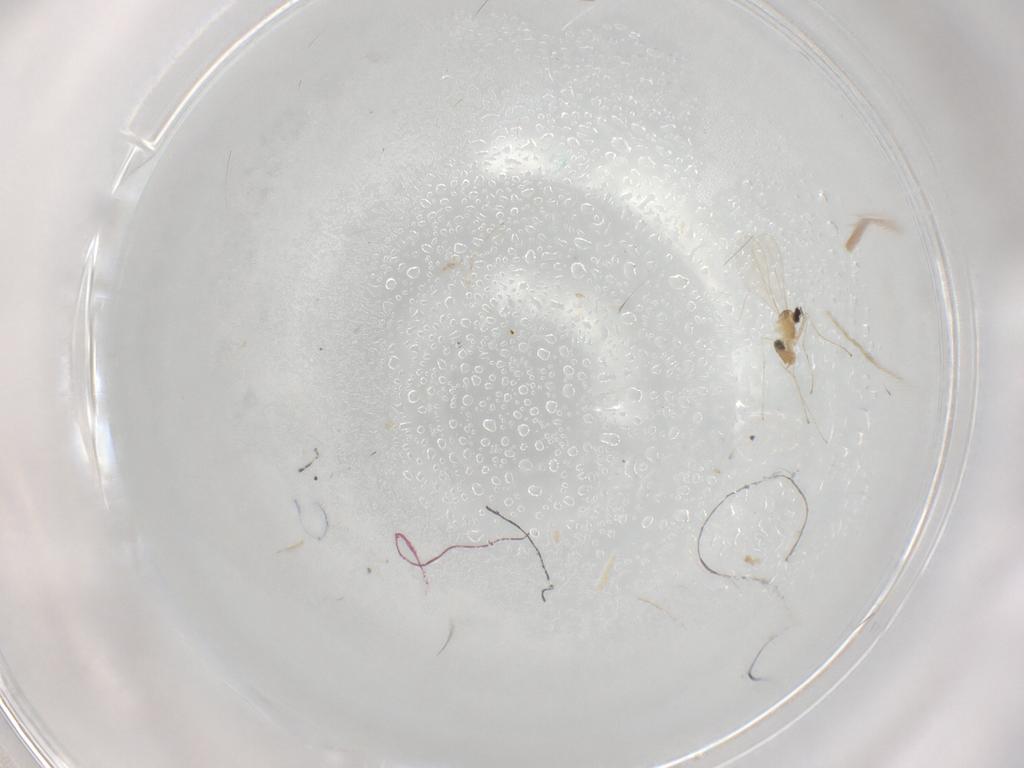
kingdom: Animalia
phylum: Arthropoda
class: Insecta
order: Diptera
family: Cecidomyiidae
